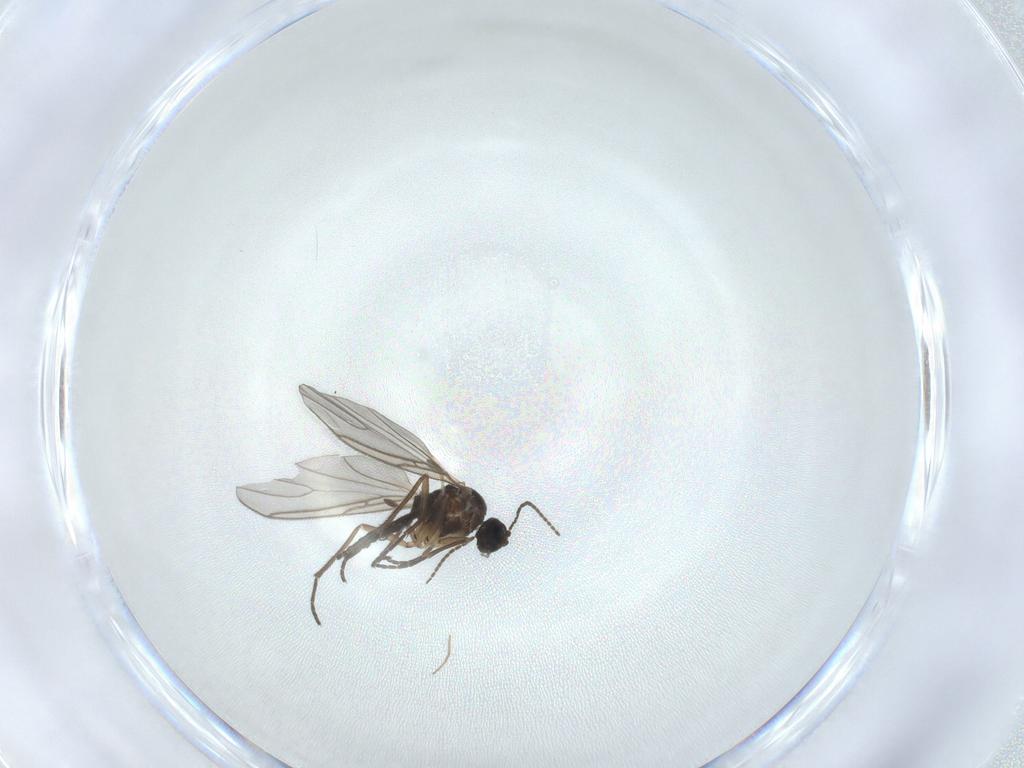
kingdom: Animalia
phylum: Arthropoda
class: Insecta
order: Diptera
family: Sciaridae
